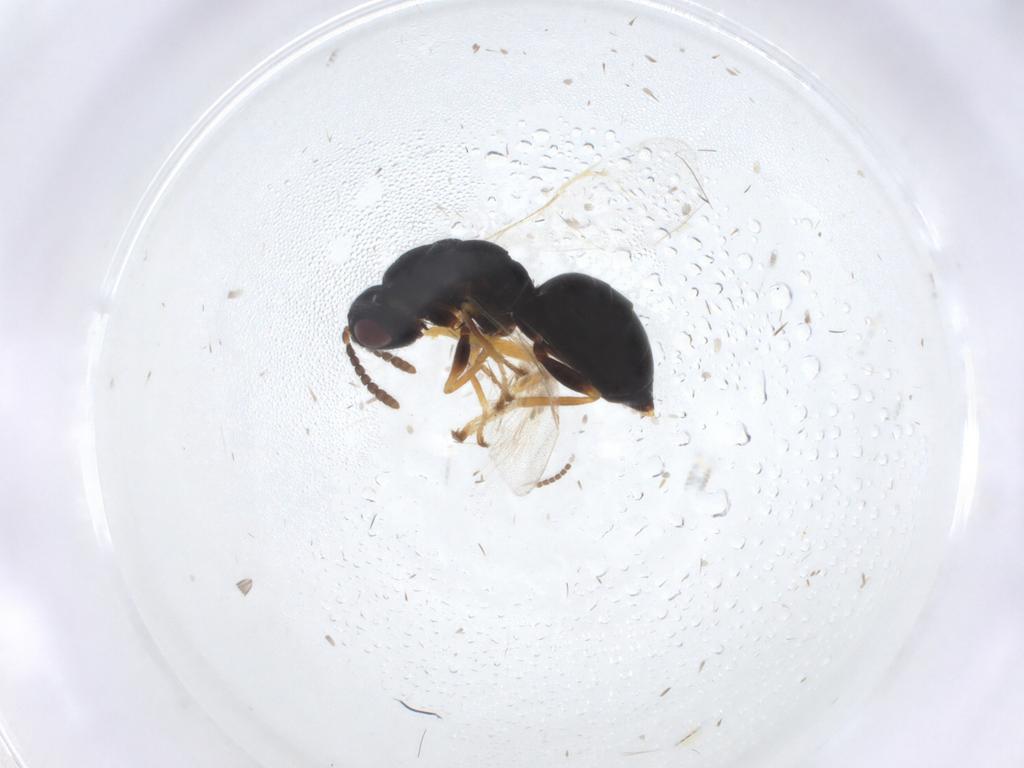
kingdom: Animalia
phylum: Arthropoda
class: Insecta
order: Hymenoptera
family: Braconidae
